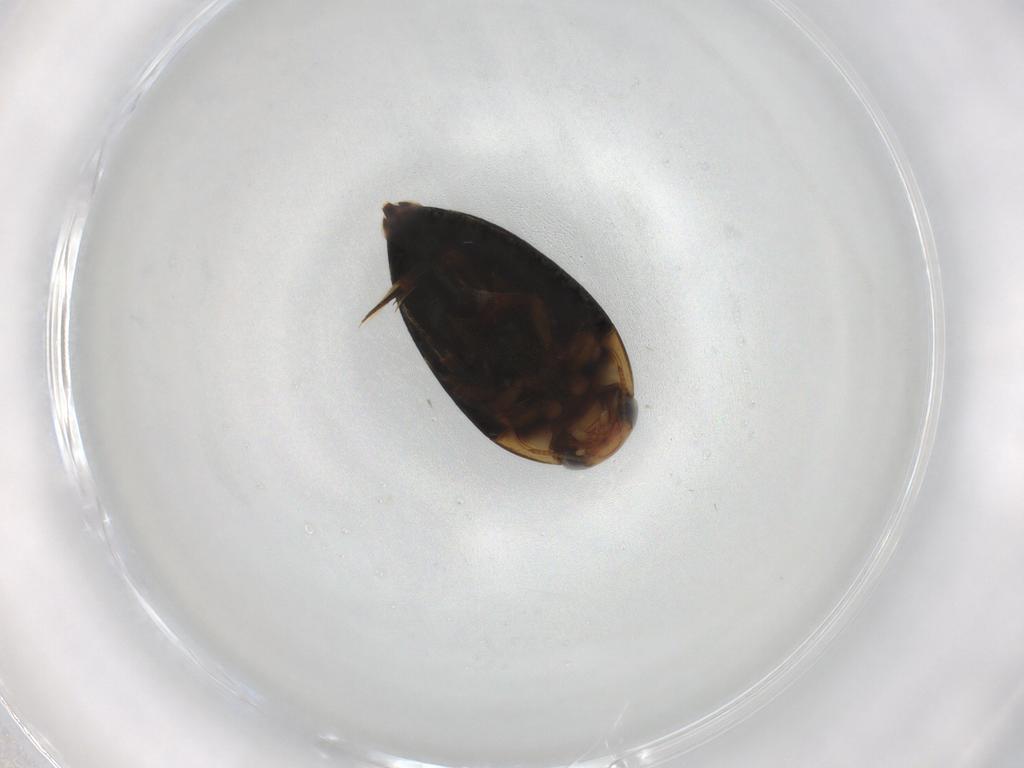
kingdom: Animalia
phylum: Arthropoda
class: Insecta
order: Coleoptera
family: Noteridae
